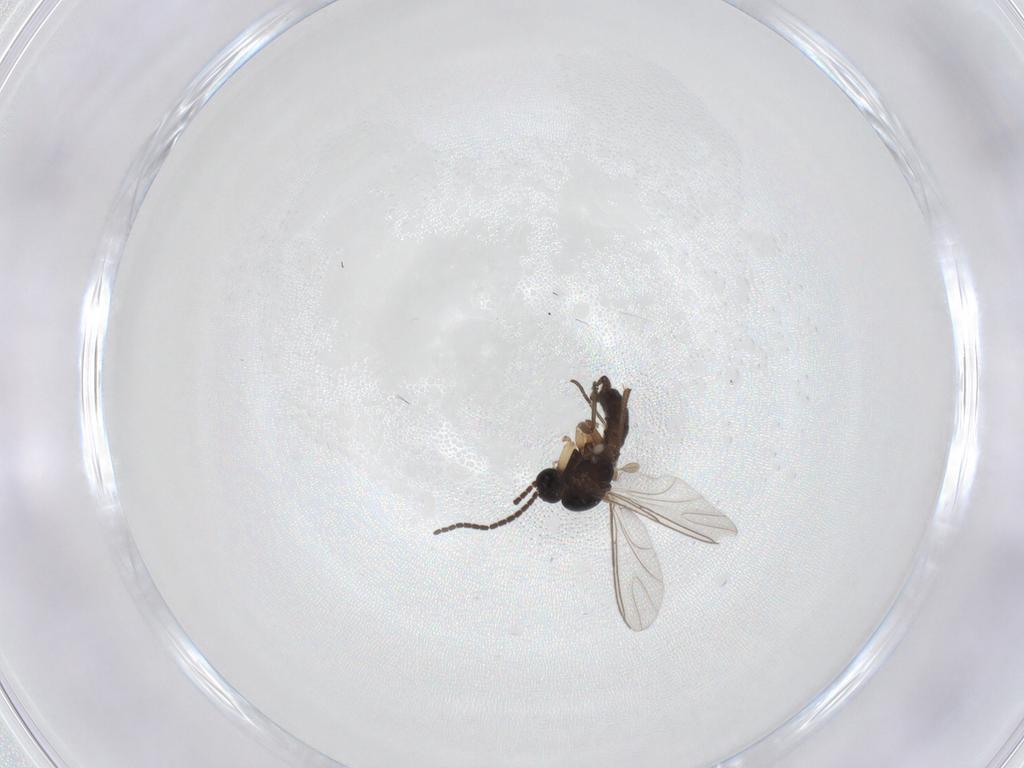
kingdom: Animalia
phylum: Arthropoda
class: Insecta
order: Diptera
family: Sciaridae
